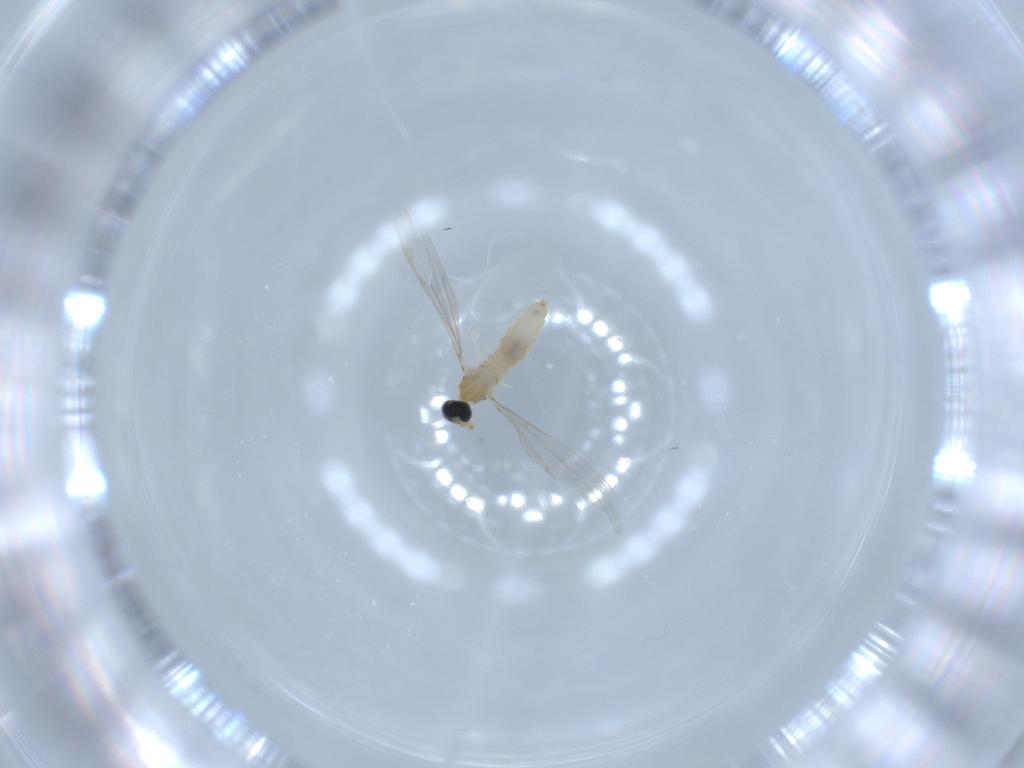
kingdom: Animalia
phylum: Arthropoda
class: Insecta
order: Diptera
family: Cecidomyiidae
